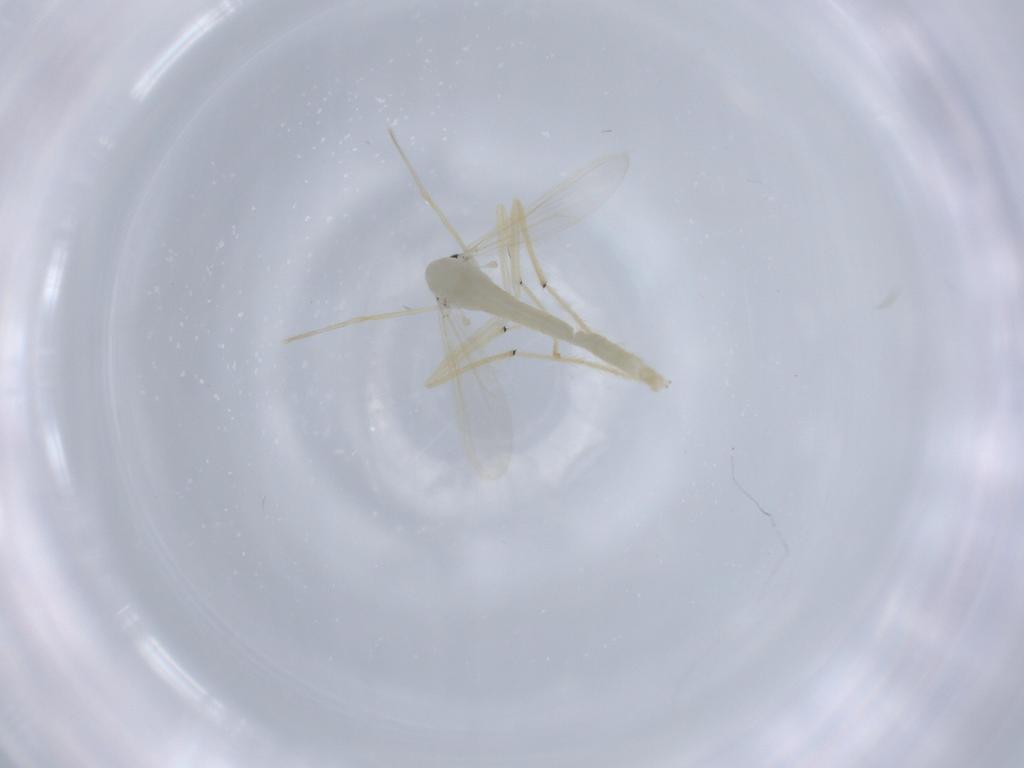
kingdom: Animalia
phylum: Arthropoda
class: Insecta
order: Diptera
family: Chironomidae
